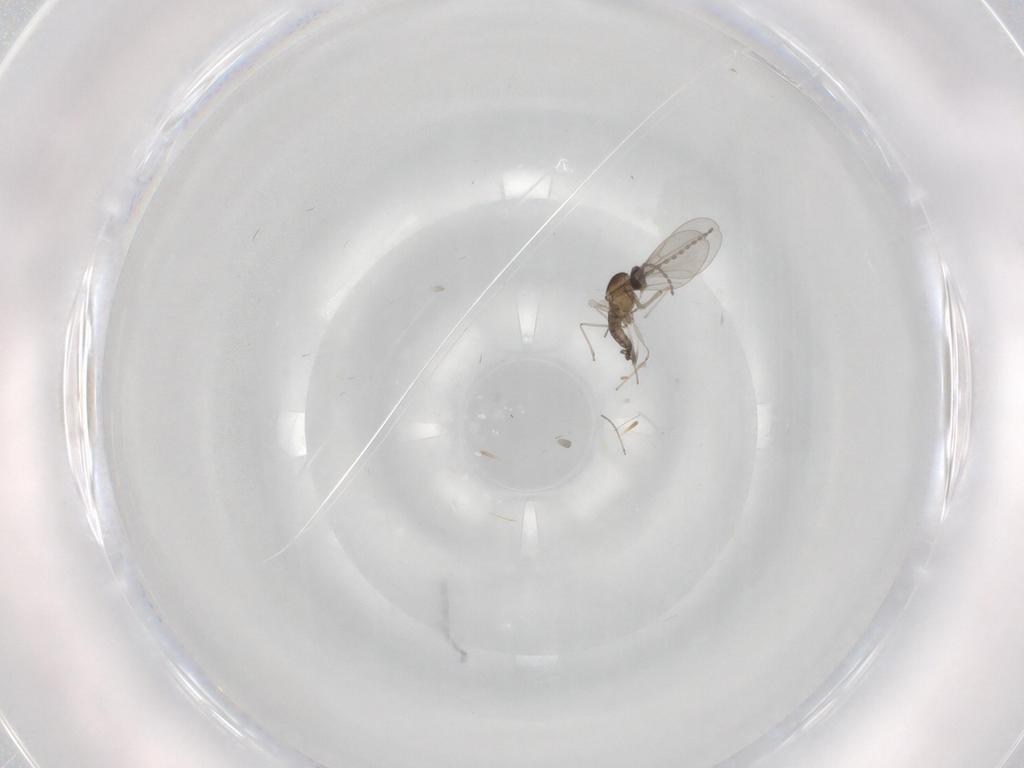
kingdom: Animalia
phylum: Arthropoda
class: Insecta
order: Diptera
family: Cecidomyiidae
